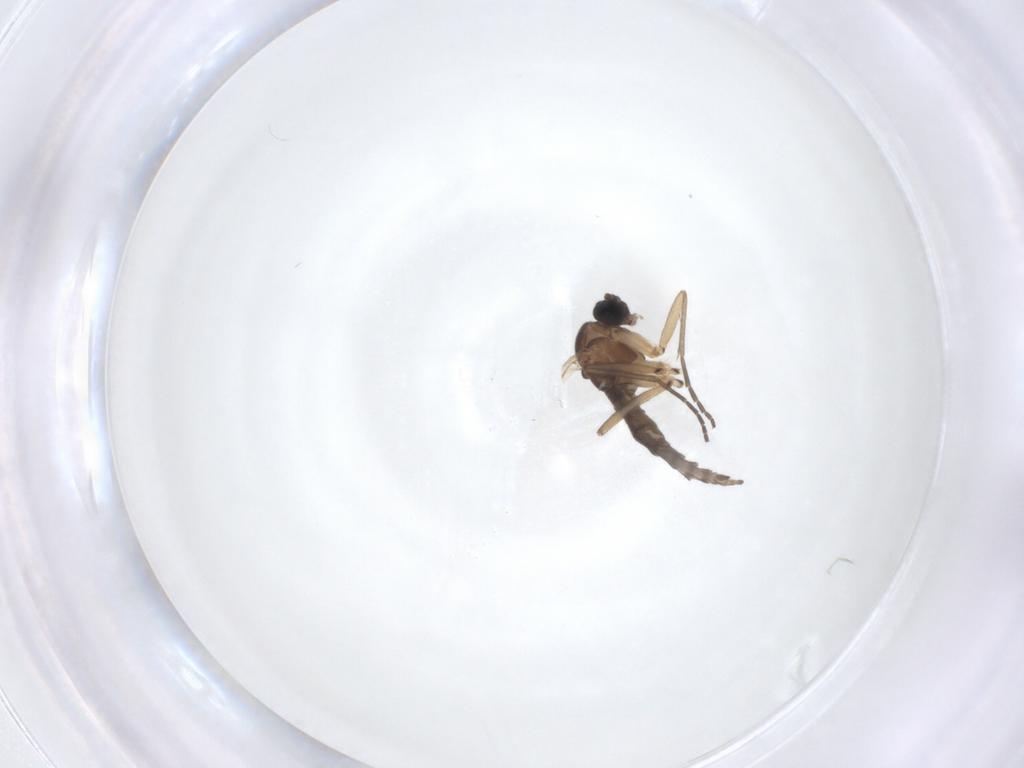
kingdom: Animalia
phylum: Arthropoda
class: Insecta
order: Diptera
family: Sciaridae
